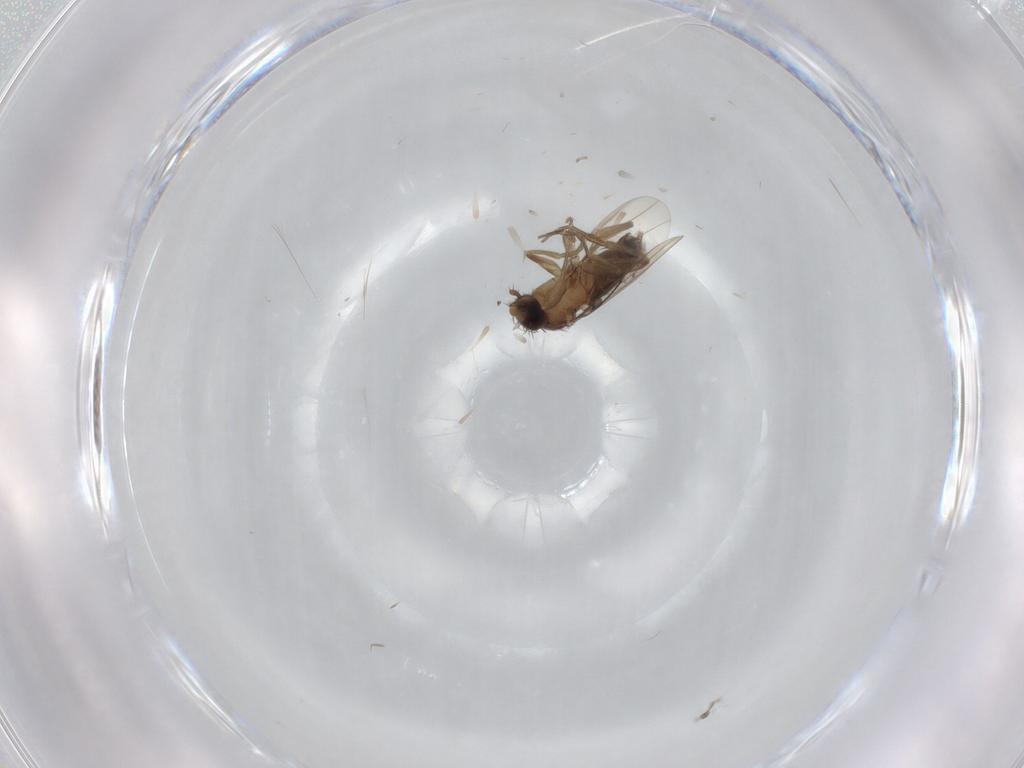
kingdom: Animalia
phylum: Arthropoda
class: Insecta
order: Diptera
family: Phoridae
